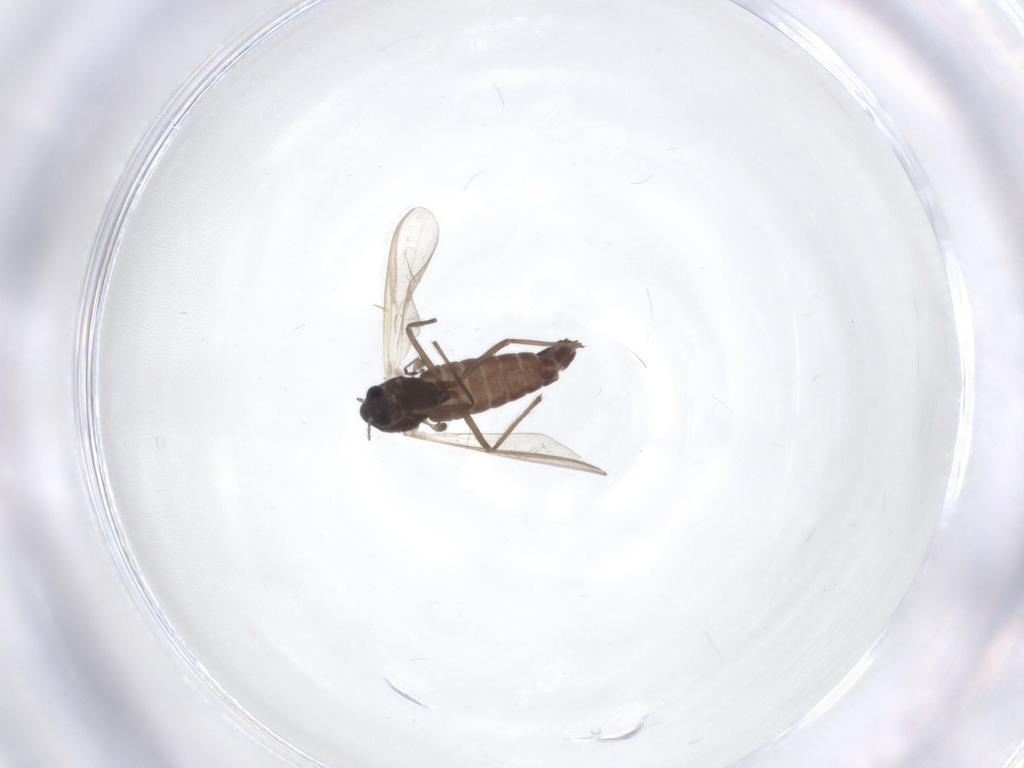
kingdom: Animalia
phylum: Arthropoda
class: Insecta
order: Diptera
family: Chironomidae
